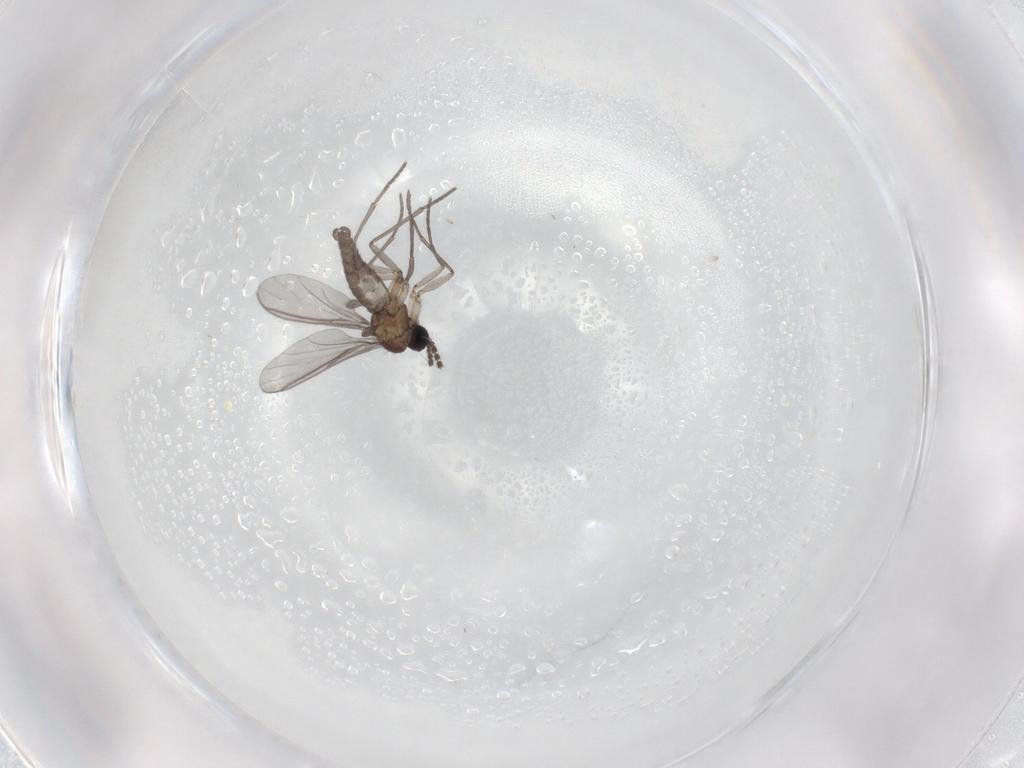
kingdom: Animalia
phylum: Arthropoda
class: Insecta
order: Diptera
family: Sciaridae
